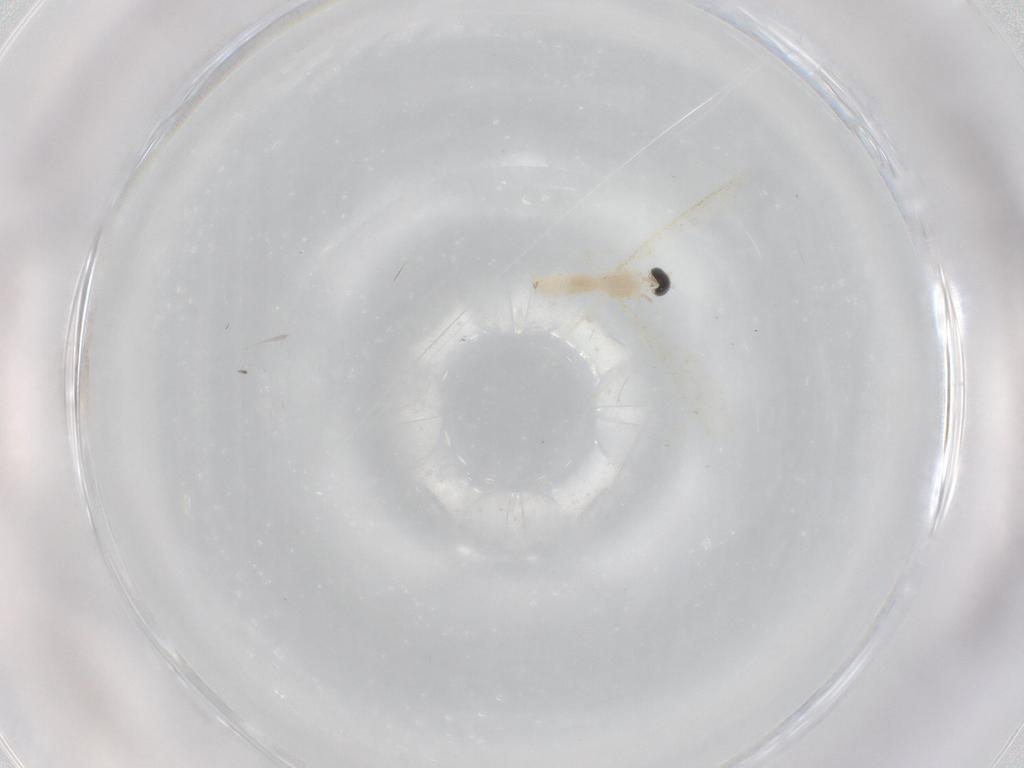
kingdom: Animalia
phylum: Arthropoda
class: Insecta
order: Diptera
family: Cecidomyiidae
